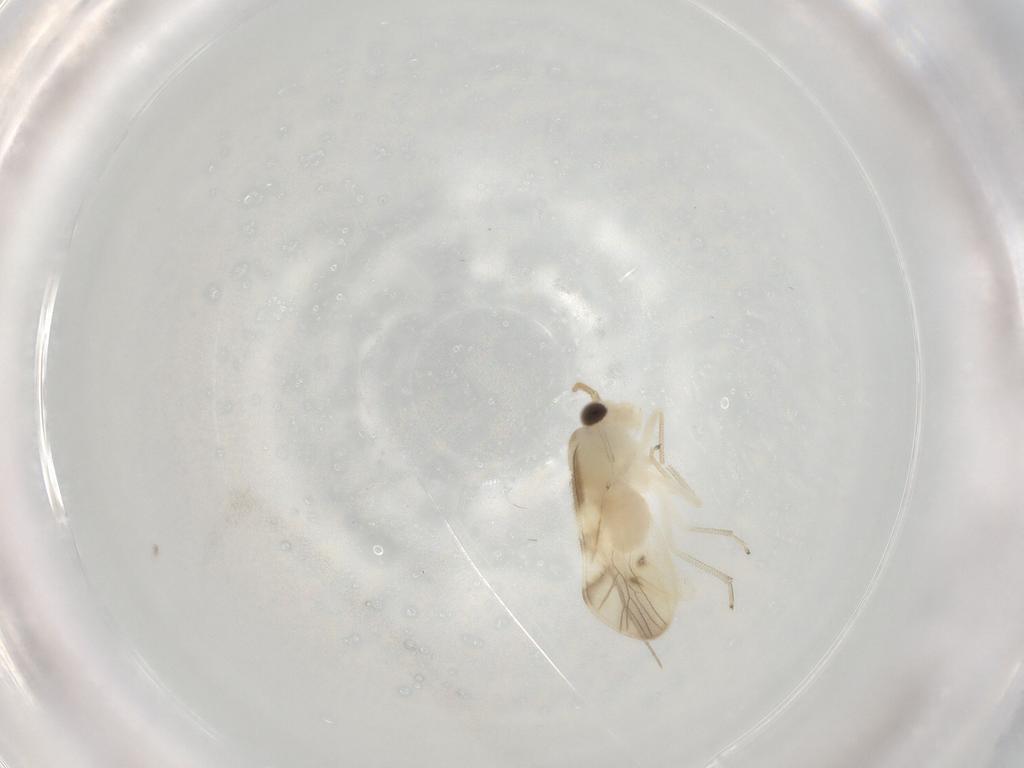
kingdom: Animalia
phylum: Arthropoda
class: Insecta
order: Psocodea
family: Caeciliusidae
